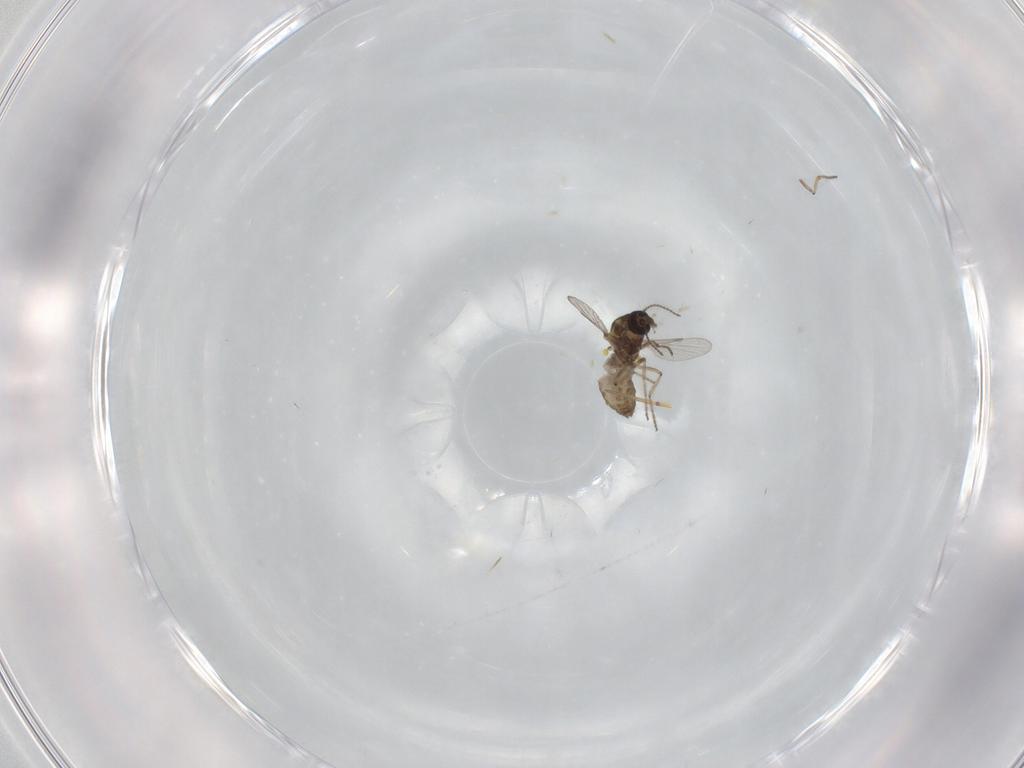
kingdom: Animalia
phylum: Arthropoda
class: Insecta
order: Diptera
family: Ceratopogonidae
